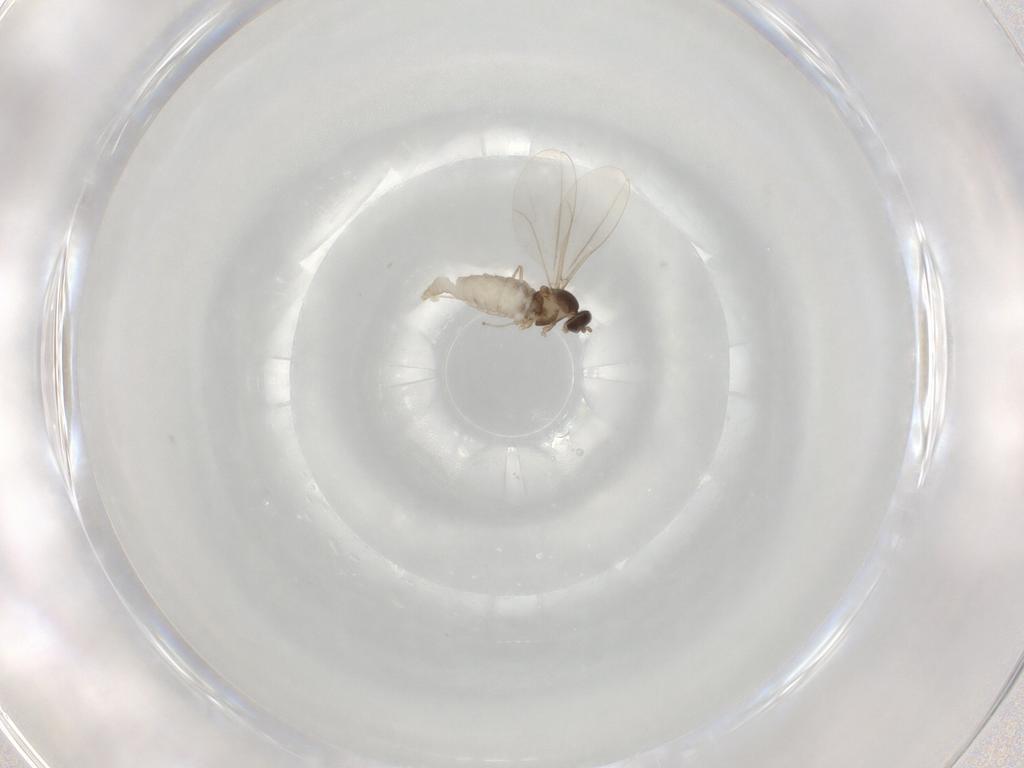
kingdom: Animalia
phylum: Arthropoda
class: Insecta
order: Diptera
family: Cecidomyiidae
